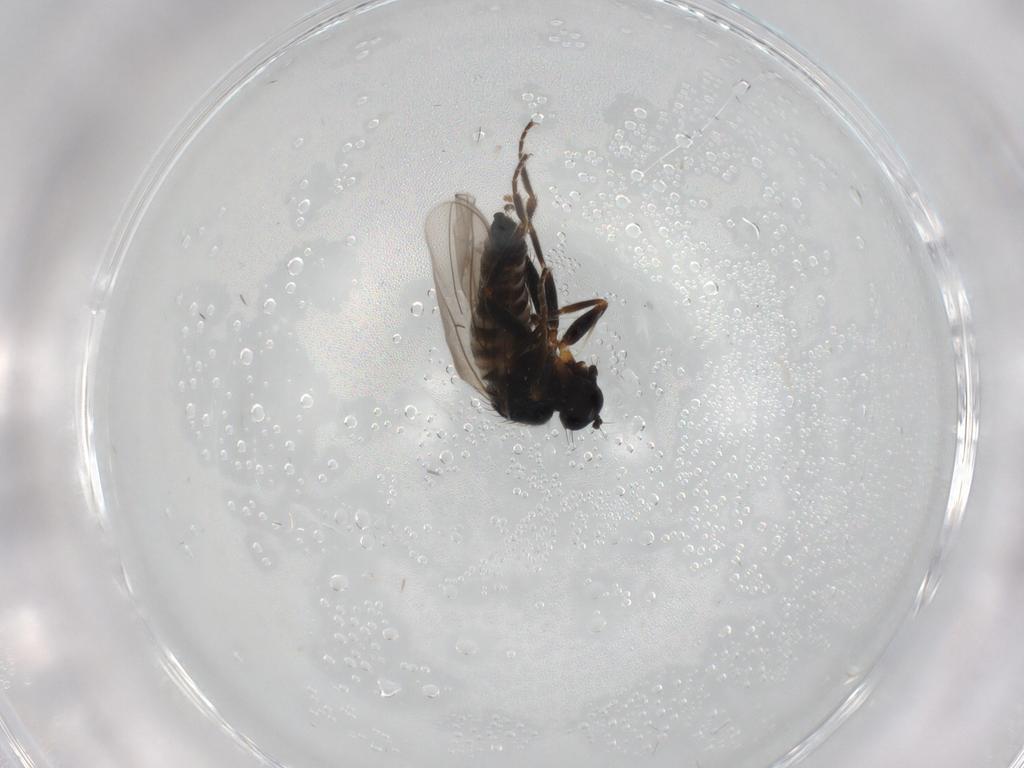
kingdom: Animalia
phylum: Arthropoda
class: Insecta
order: Diptera
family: Hybotidae
